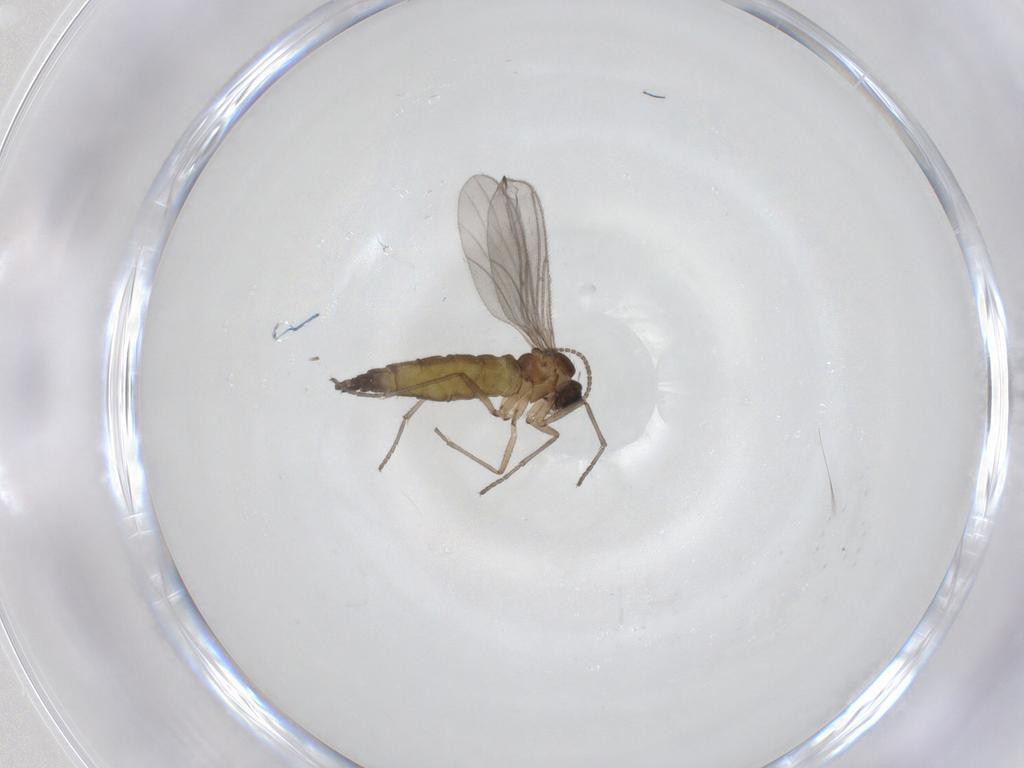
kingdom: Animalia
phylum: Arthropoda
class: Insecta
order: Diptera
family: Sciaridae
